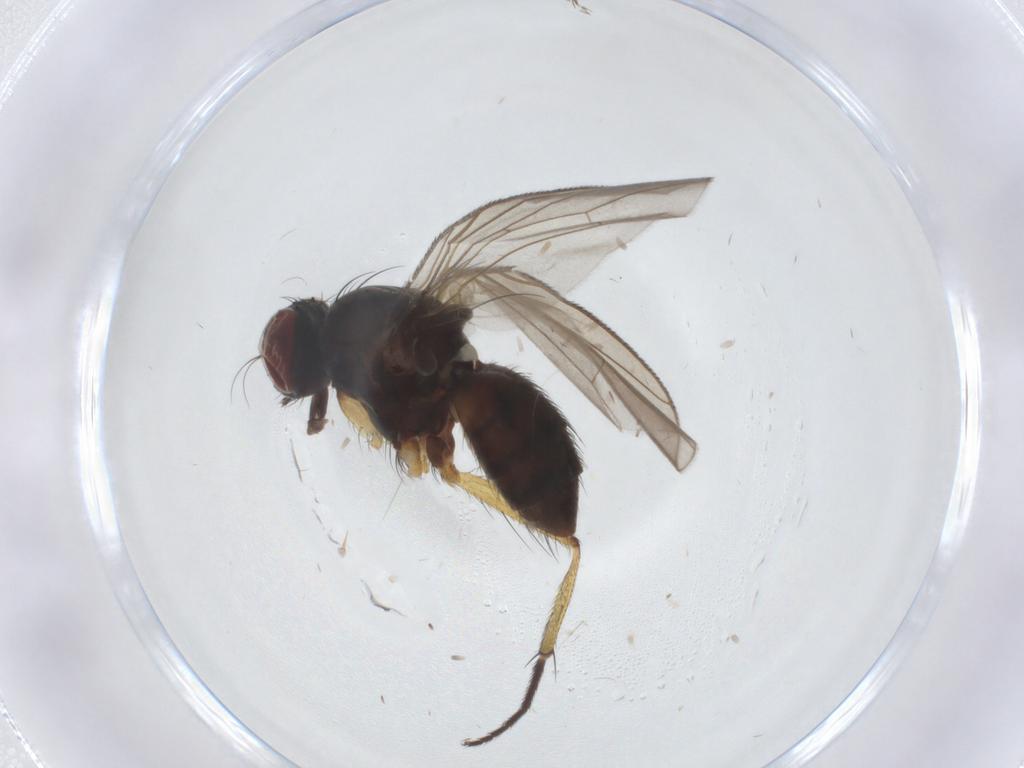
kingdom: Animalia
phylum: Arthropoda
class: Insecta
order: Diptera
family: Muscidae
